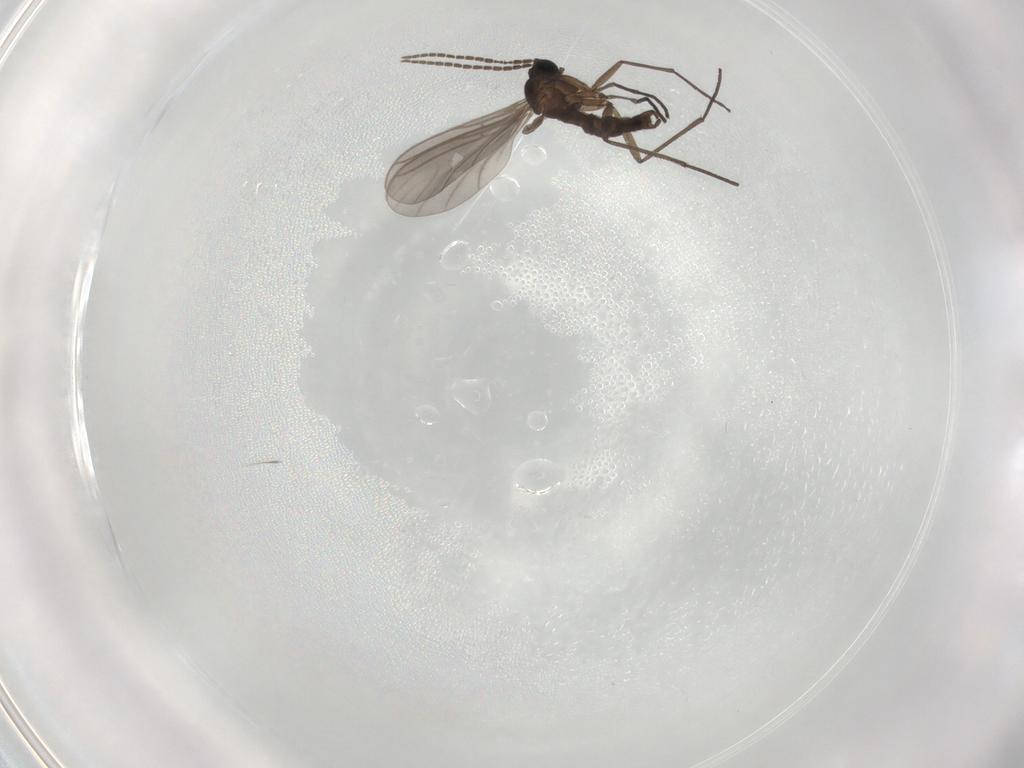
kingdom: Animalia
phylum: Arthropoda
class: Insecta
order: Diptera
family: Sciaridae
